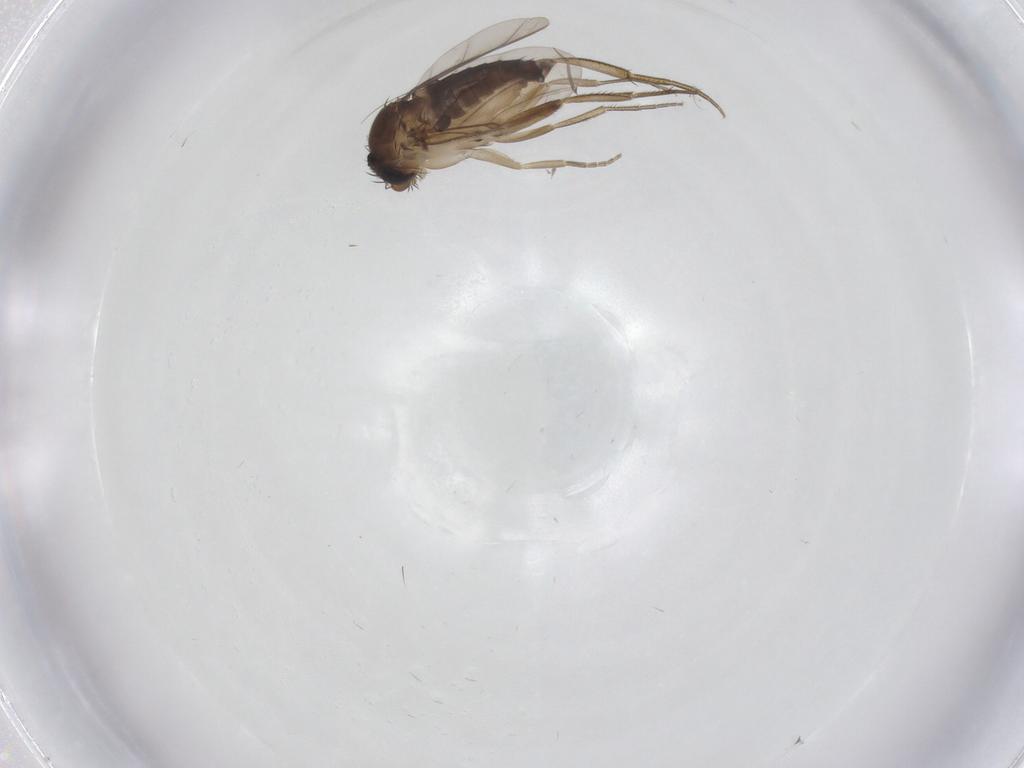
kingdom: Animalia
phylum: Arthropoda
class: Insecta
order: Diptera
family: Phoridae
